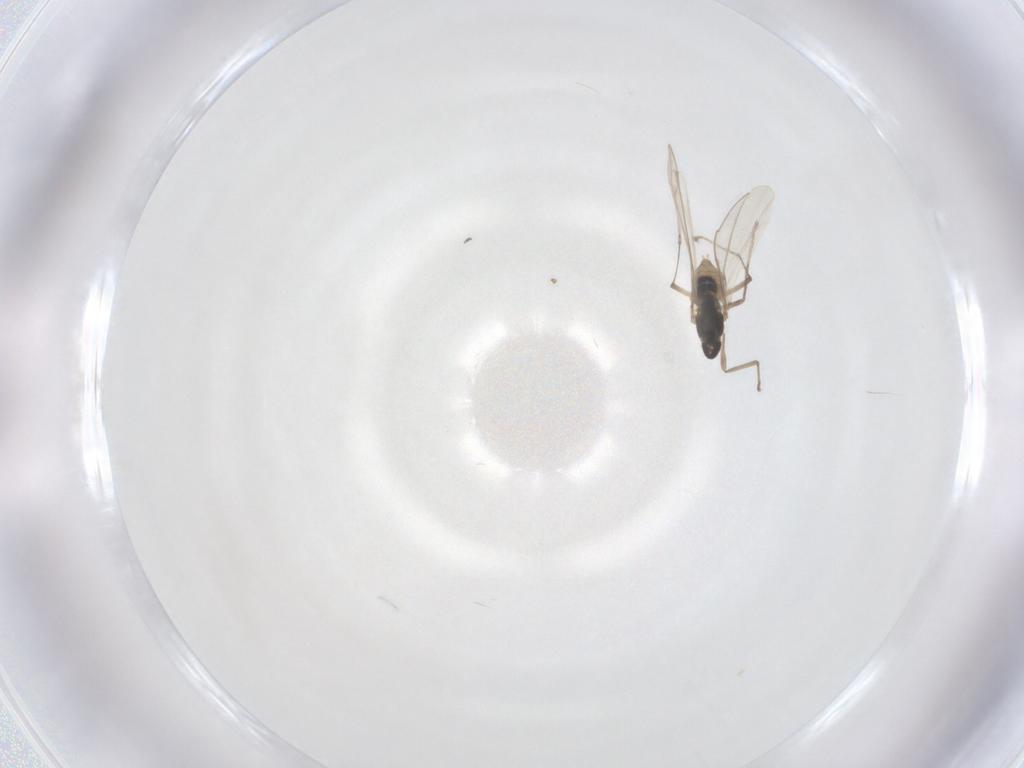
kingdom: Animalia
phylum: Arthropoda
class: Insecta
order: Diptera
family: Cecidomyiidae
